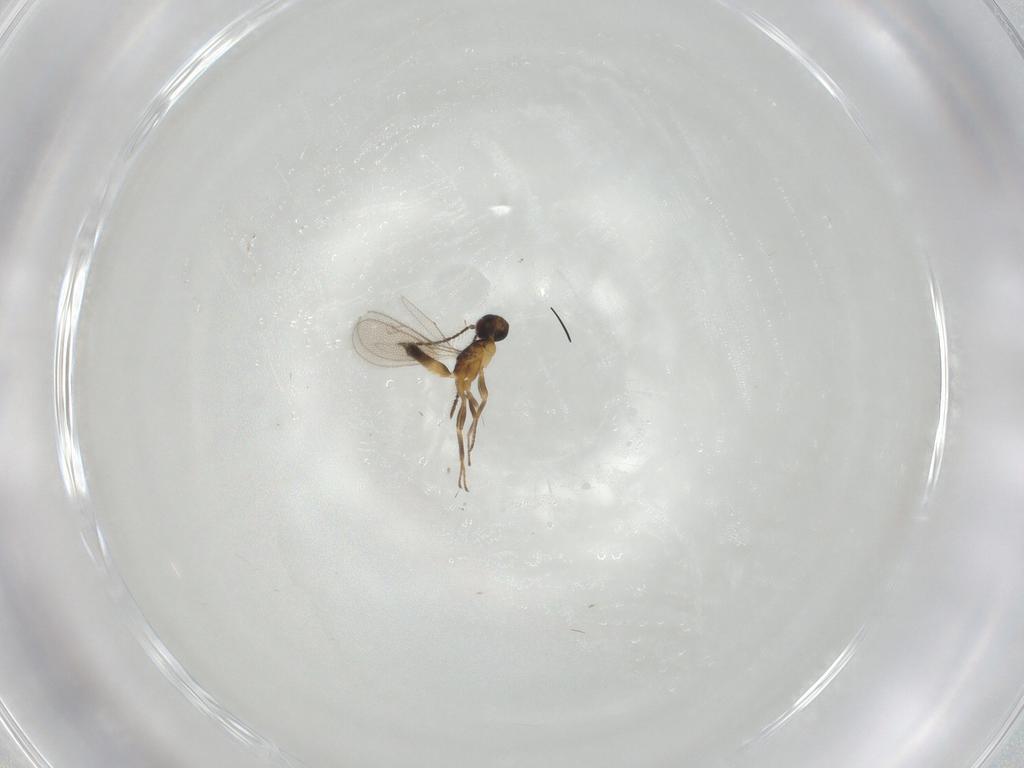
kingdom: Animalia
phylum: Arthropoda
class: Insecta
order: Hymenoptera
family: Eupelmidae
